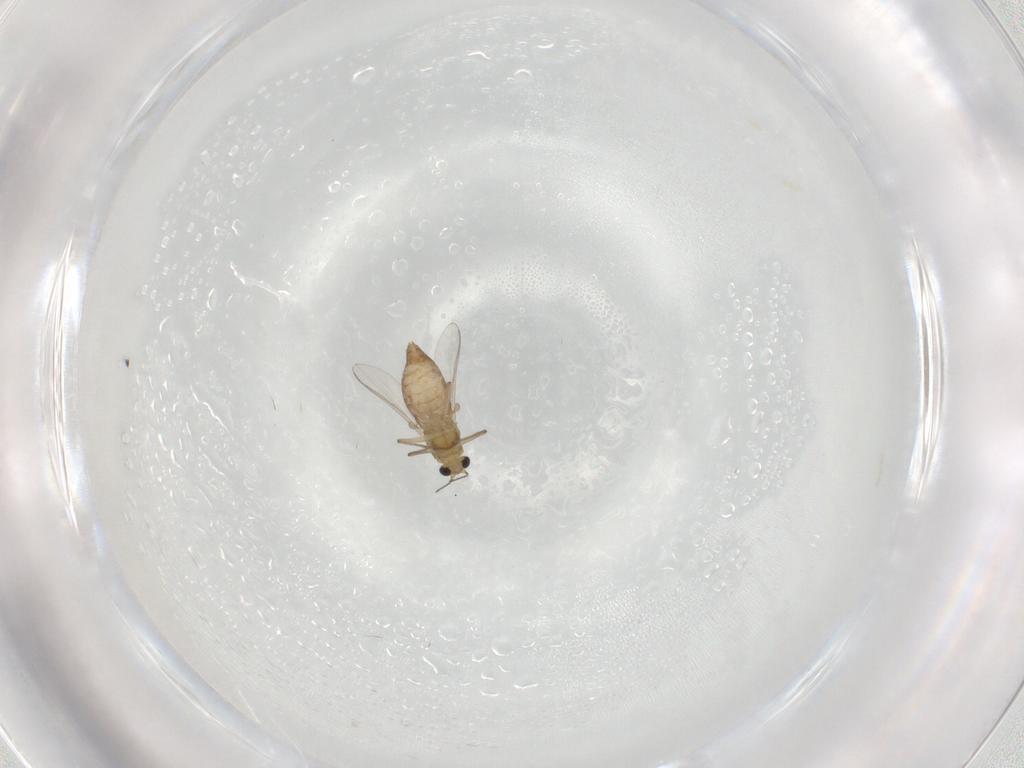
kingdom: Animalia
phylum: Arthropoda
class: Insecta
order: Diptera
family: Chironomidae
